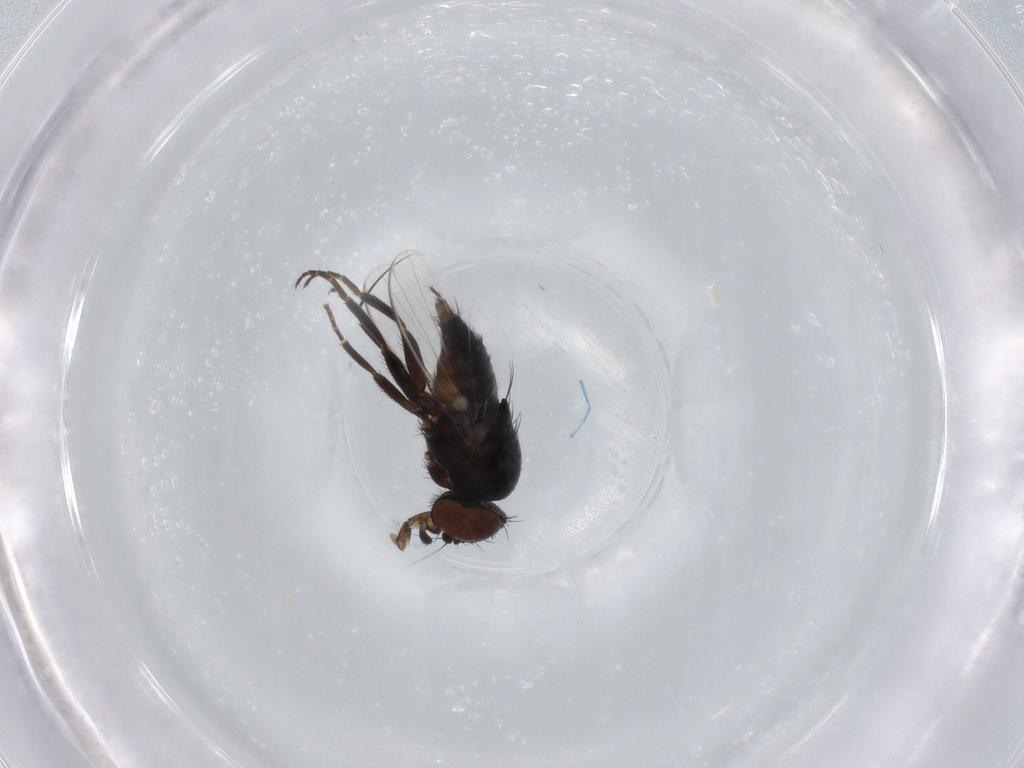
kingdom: Animalia
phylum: Arthropoda
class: Insecta
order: Diptera
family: Milichiidae
